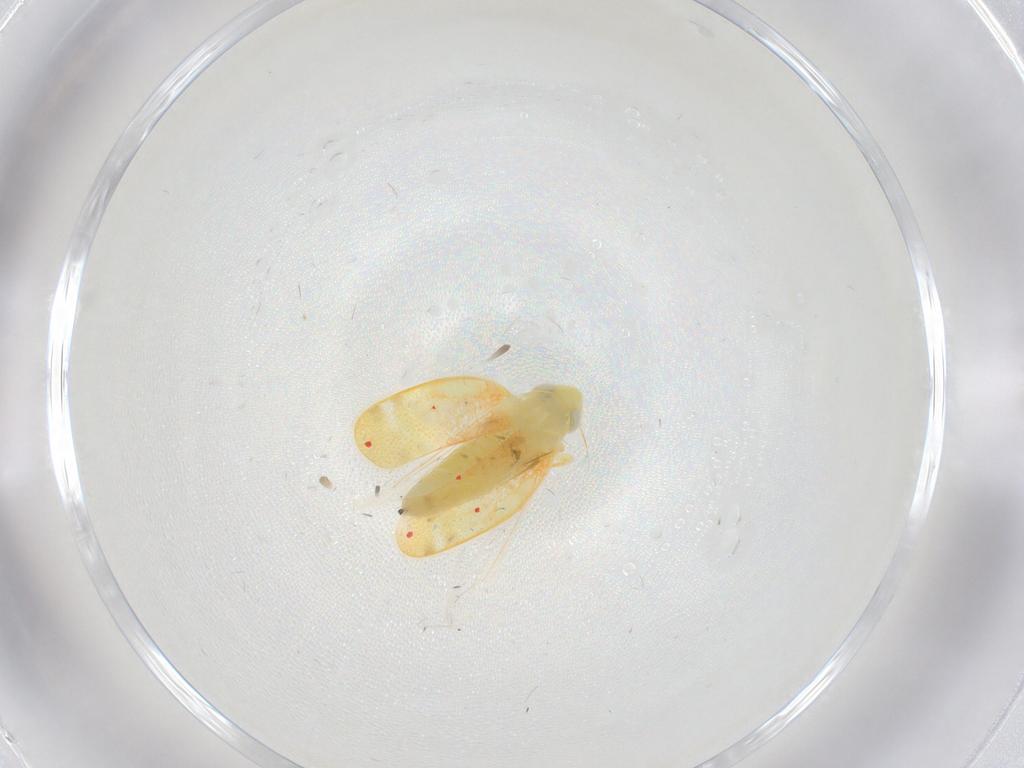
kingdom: Animalia
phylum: Arthropoda
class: Insecta
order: Hemiptera
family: Cicadellidae
